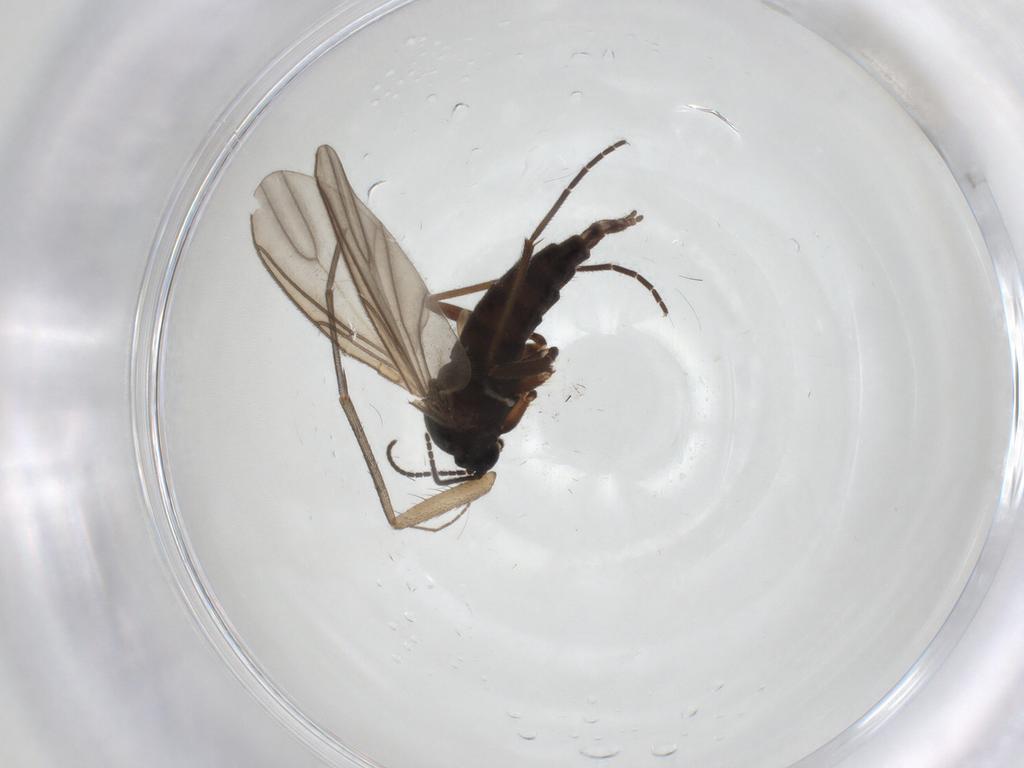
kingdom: Animalia
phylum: Arthropoda
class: Insecta
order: Diptera
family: Sciaridae
